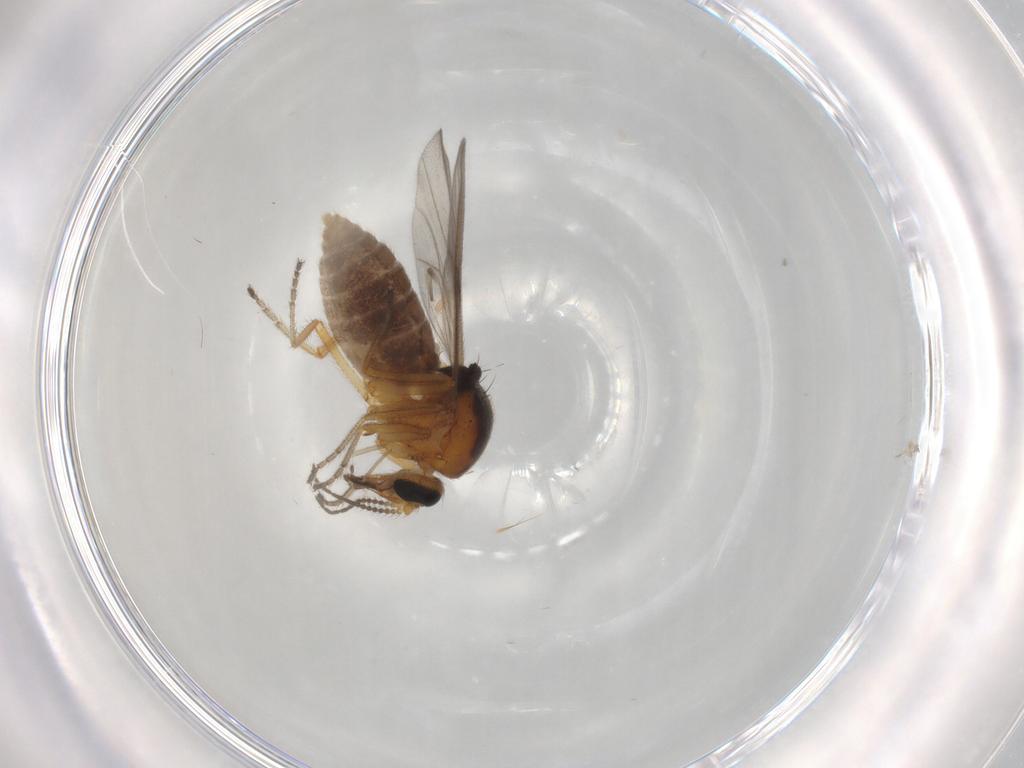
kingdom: Animalia
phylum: Arthropoda
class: Insecta
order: Diptera
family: Ceratopogonidae
